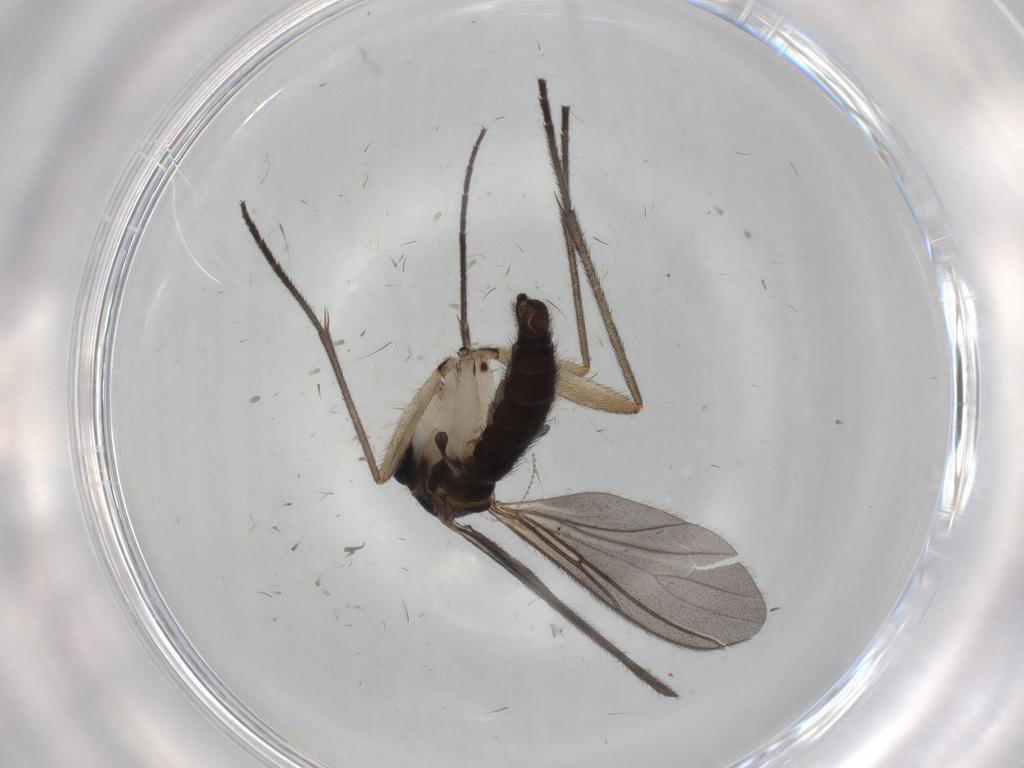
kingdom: Animalia
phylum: Arthropoda
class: Insecta
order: Diptera
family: Sciaridae
